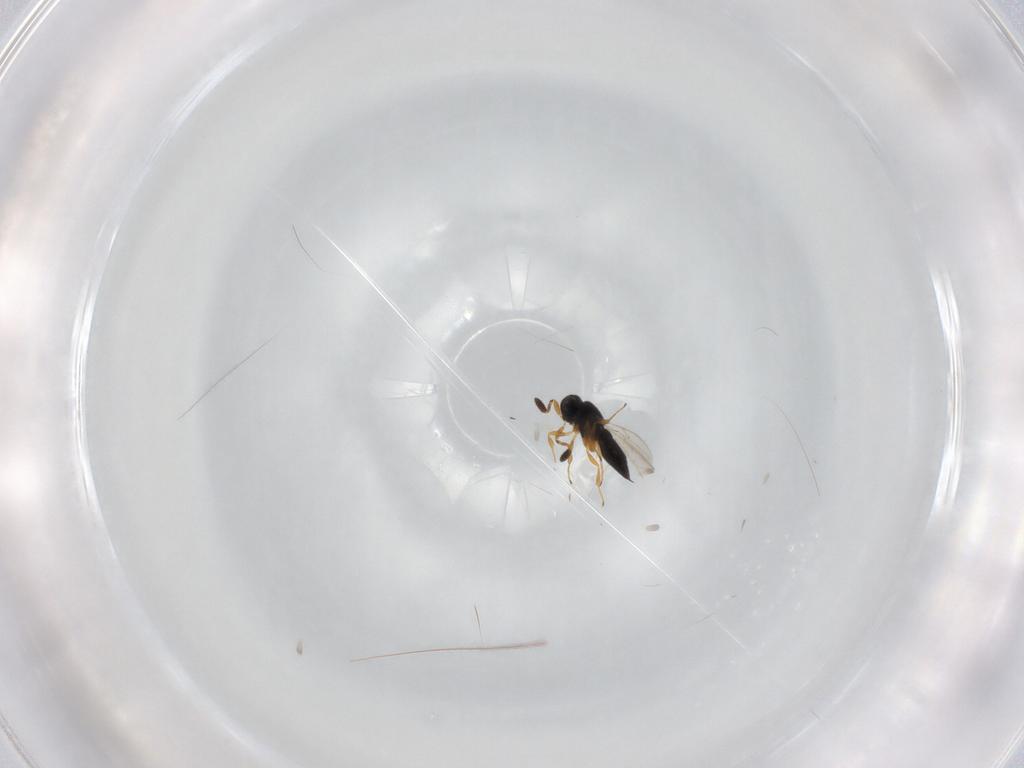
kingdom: Animalia
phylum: Arthropoda
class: Insecta
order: Hymenoptera
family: Scelionidae
